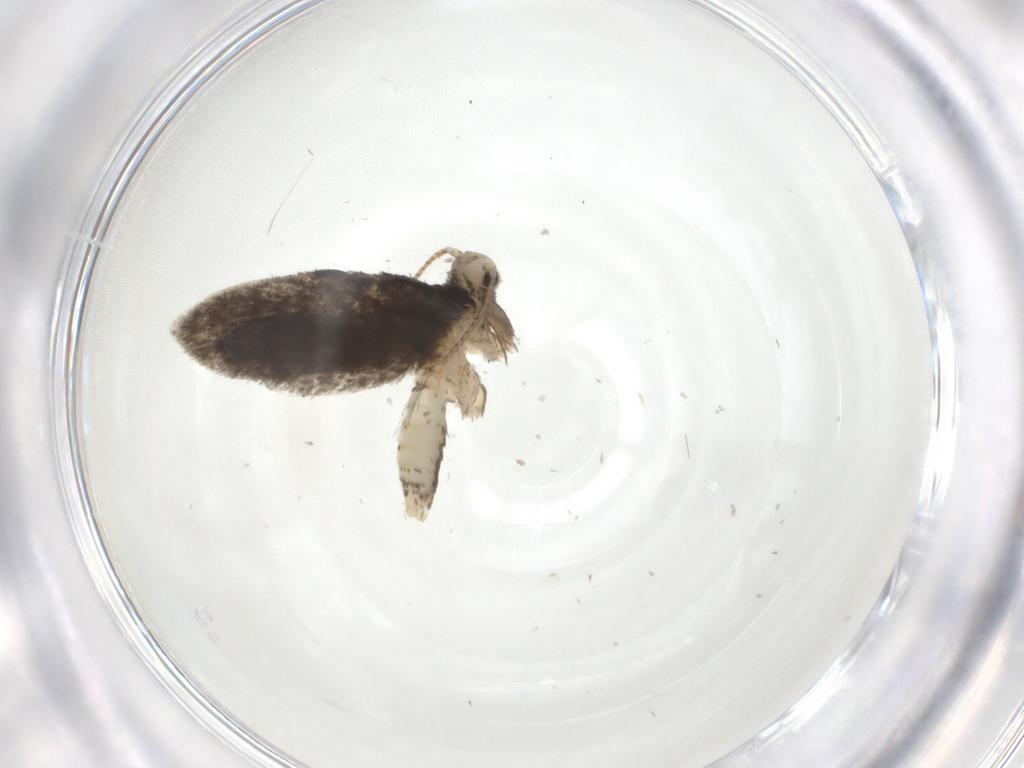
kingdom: Animalia
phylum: Arthropoda
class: Insecta
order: Lepidoptera
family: Psychidae
